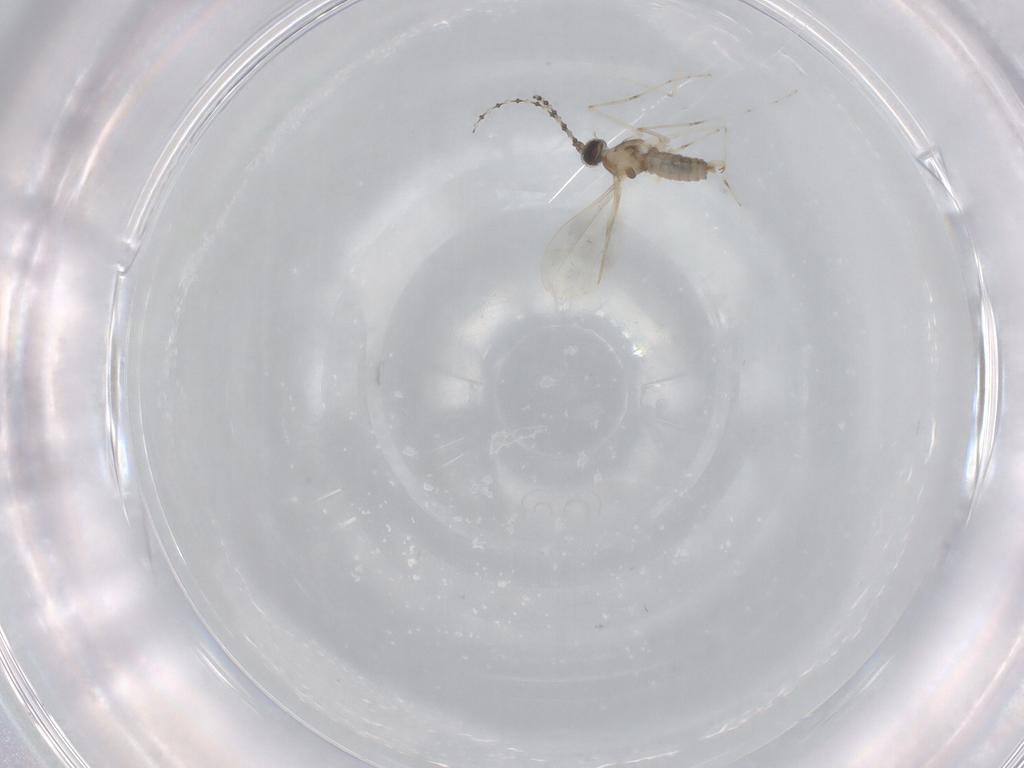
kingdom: Animalia
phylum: Arthropoda
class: Insecta
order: Diptera
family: Cecidomyiidae
